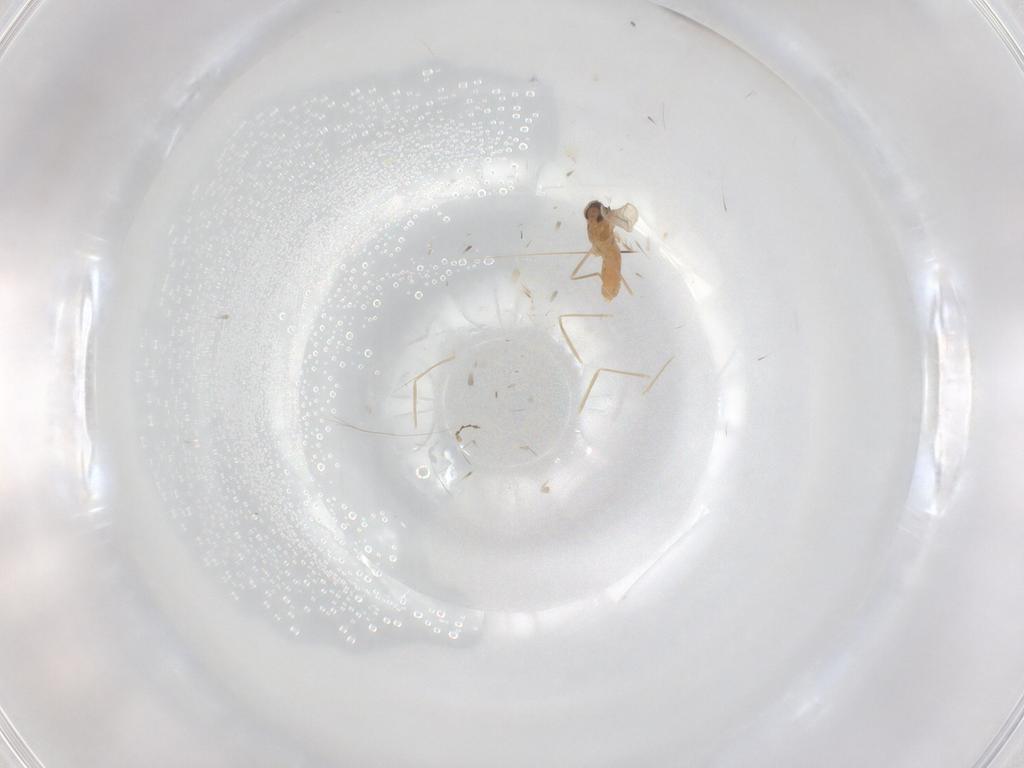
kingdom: Animalia
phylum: Arthropoda
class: Insecta
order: Diptera
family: Cecidomyiidae
